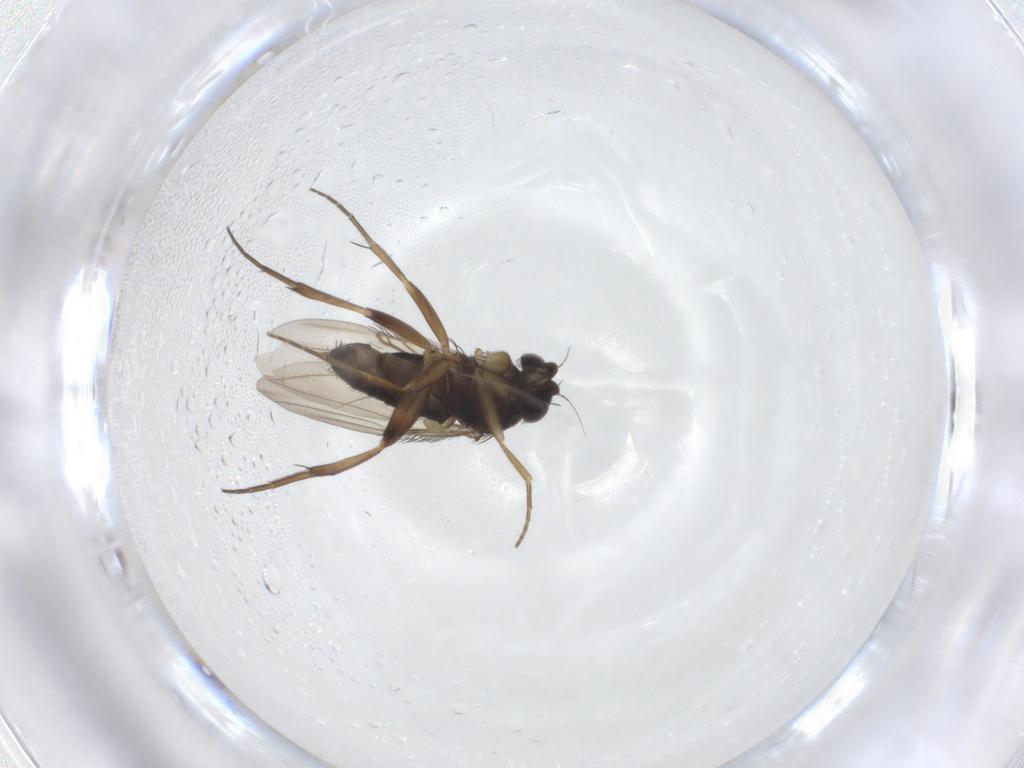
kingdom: Animalia
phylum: Arthropoda
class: Insecta
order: Diptera
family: Phoridae
